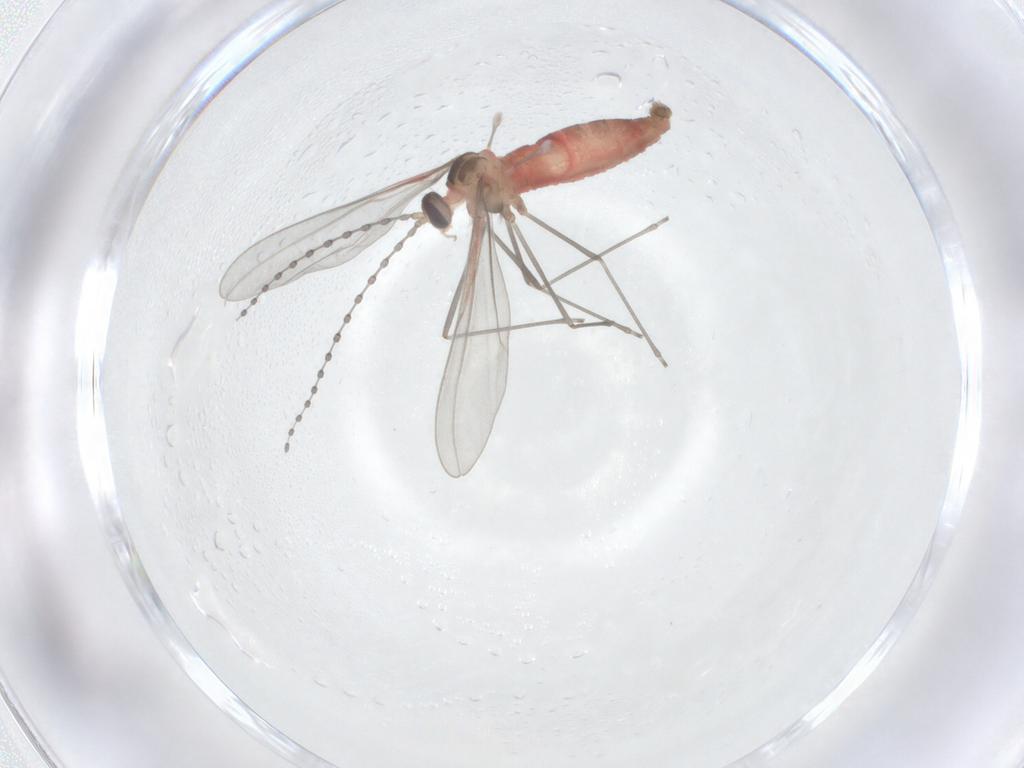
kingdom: Animalia
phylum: Arthropoda
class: Insecta
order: Diptera
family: Cecidomyiidae
